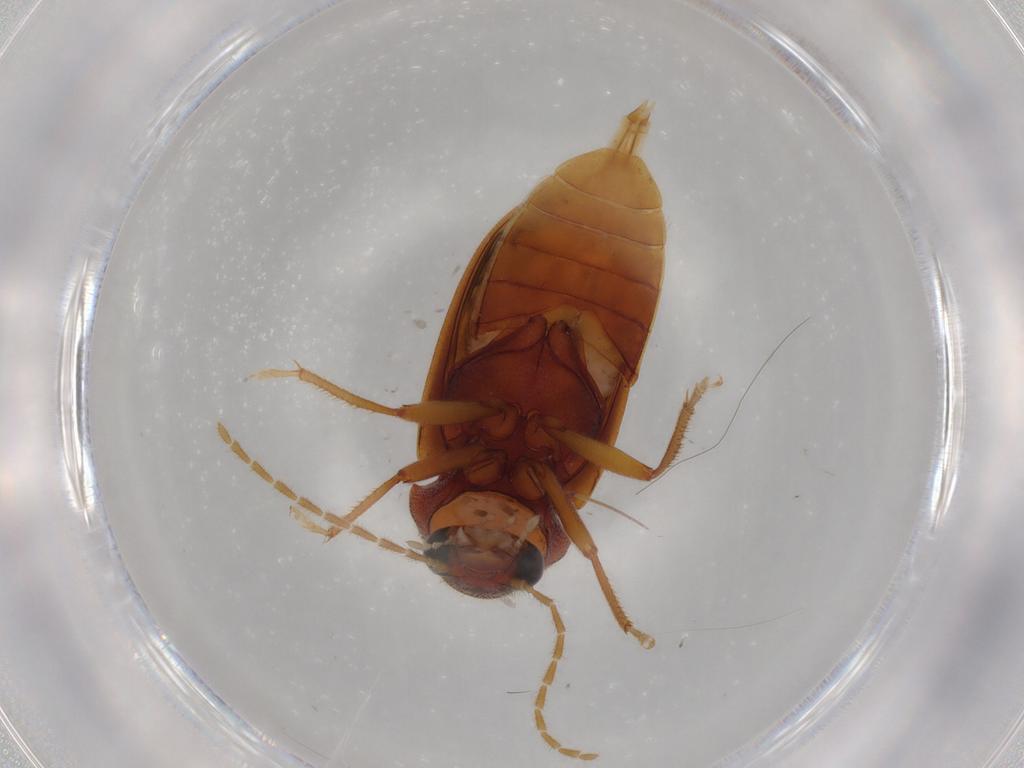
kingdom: Animalia
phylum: Arthropoda
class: Insecta
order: Coleoptera
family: Ptilodactylidae
